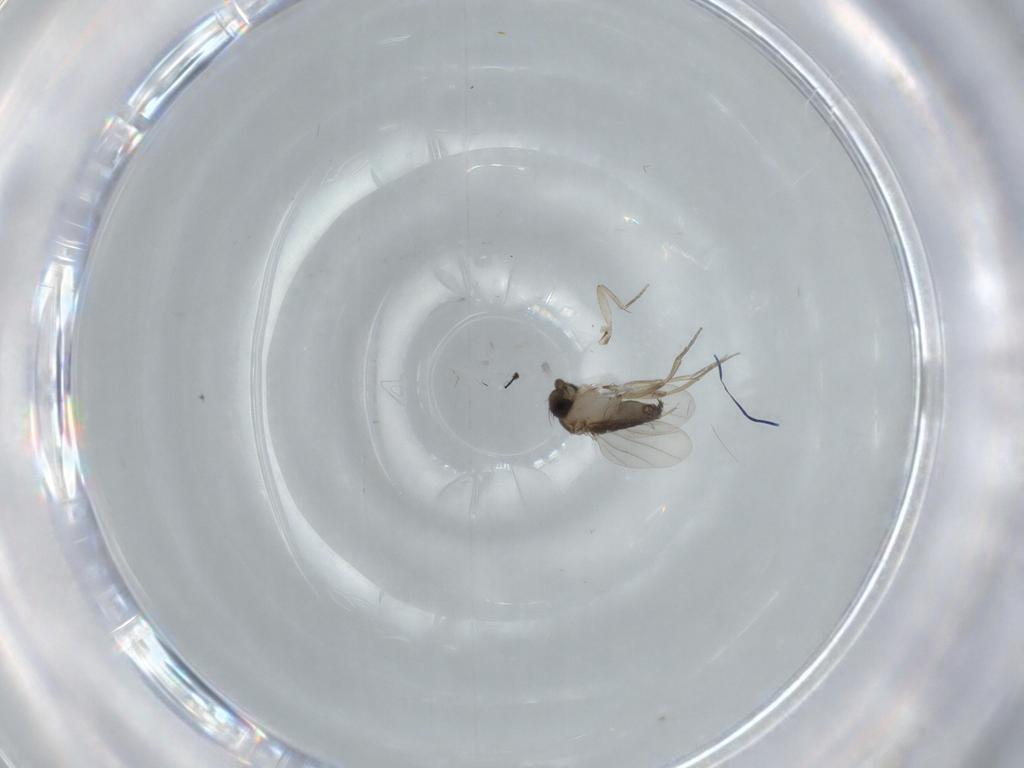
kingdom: Animalia
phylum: Arthropoda
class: Insecta
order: Diptera
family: Phoridae
